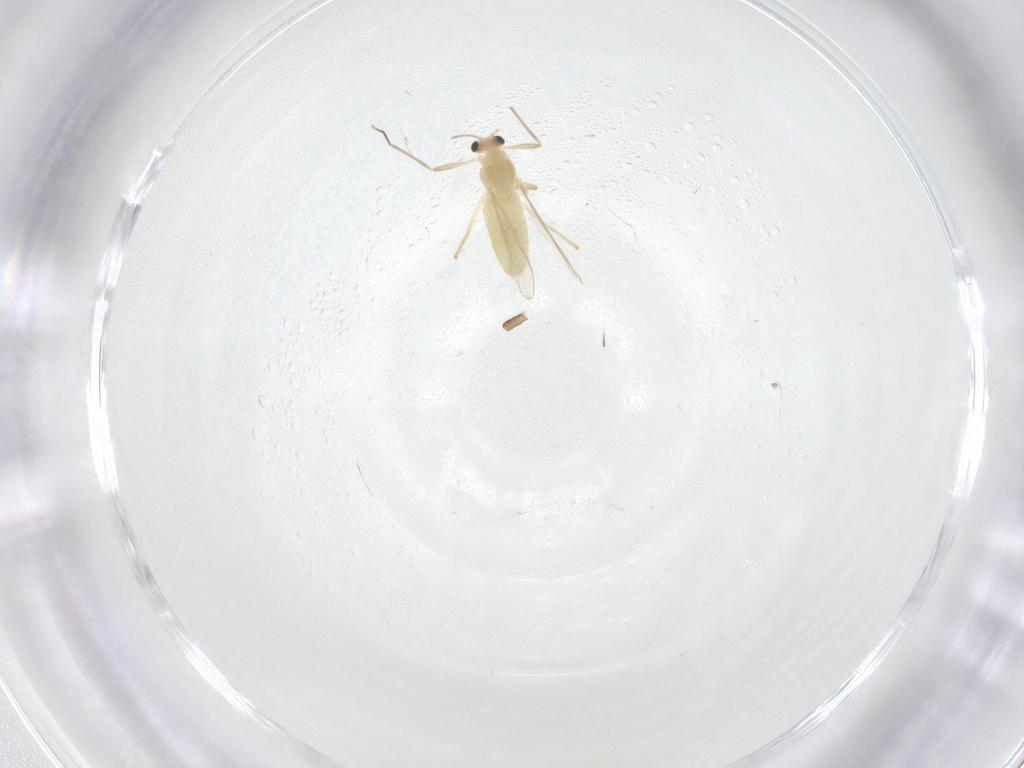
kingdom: Animalia
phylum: Arthropoda
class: Insecta
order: Diptera
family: Chironomidae
